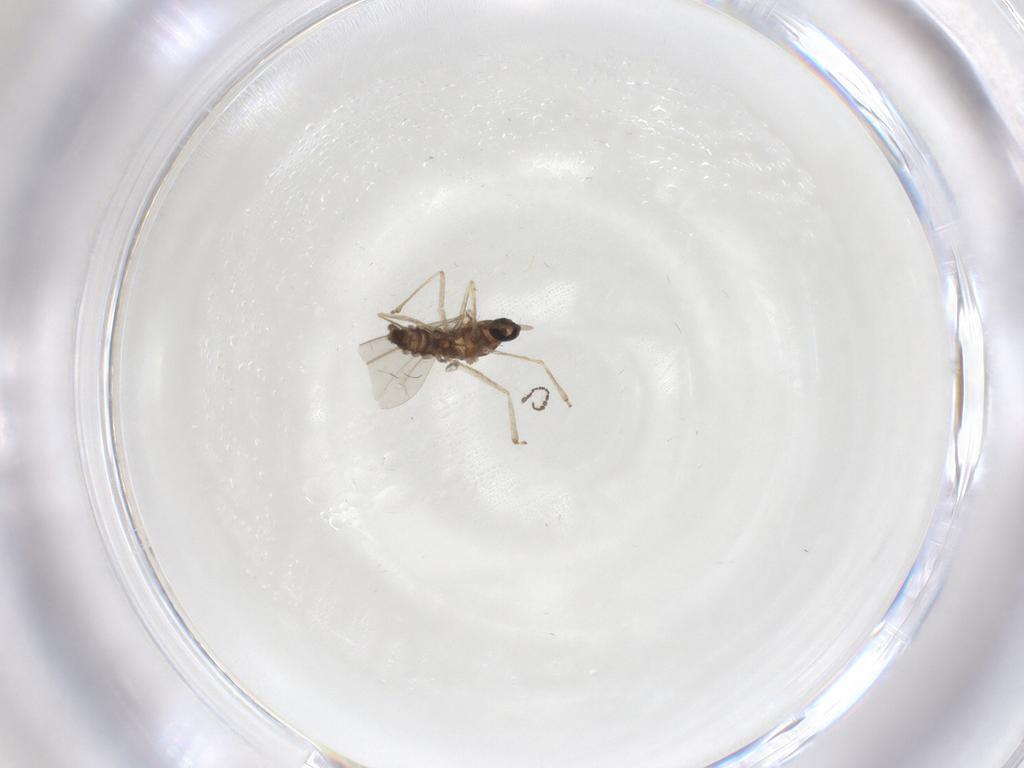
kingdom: Animalia
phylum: Arthropoda
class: Insecta
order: Diptera
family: Cecidomyiidae
